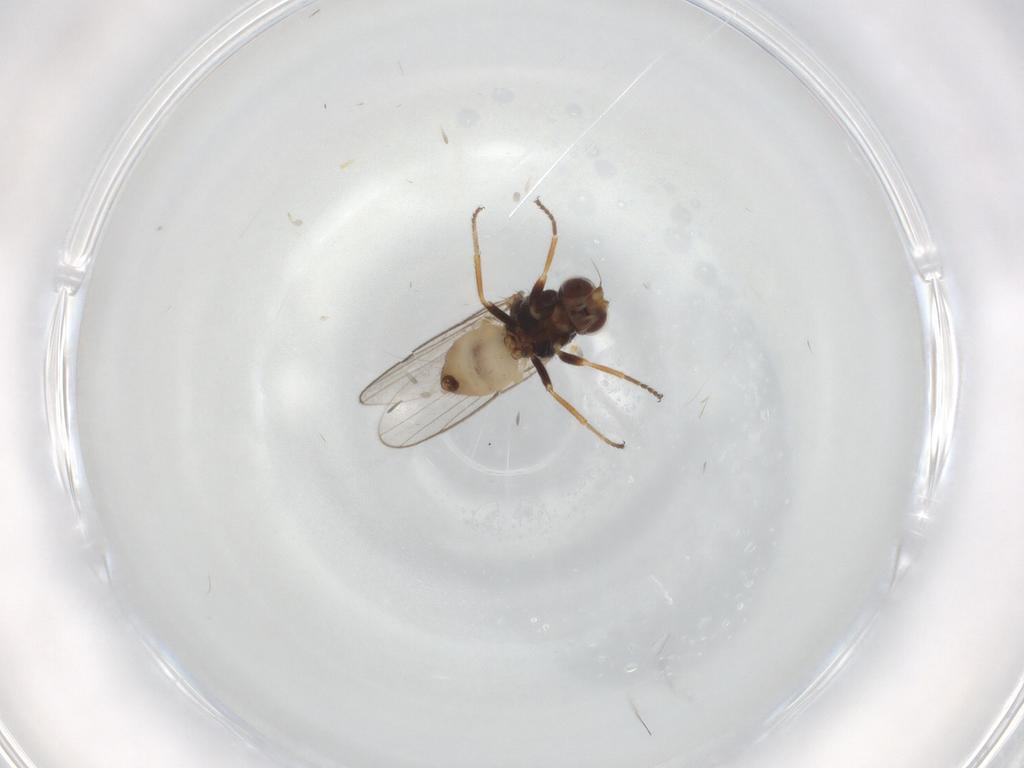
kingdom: Animalia
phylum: Arthropoda
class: Insecta
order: Diptera
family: Chloropidae
